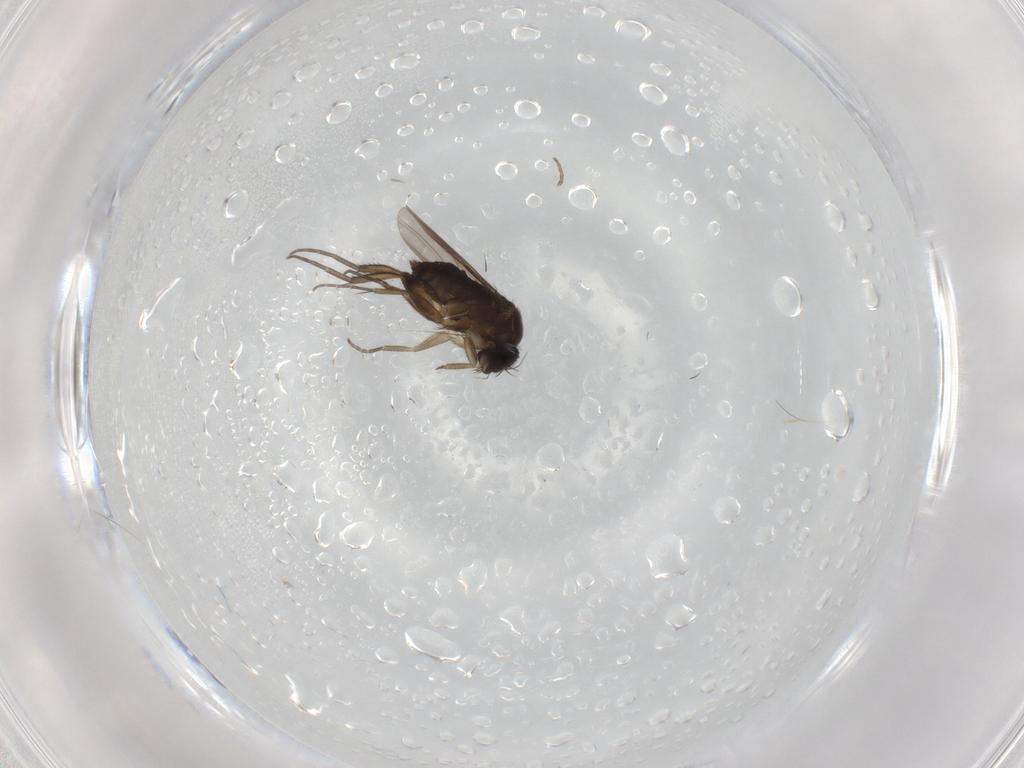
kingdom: Animalia
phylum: Arthropoda
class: Insecta
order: Diptera
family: Phoridae
